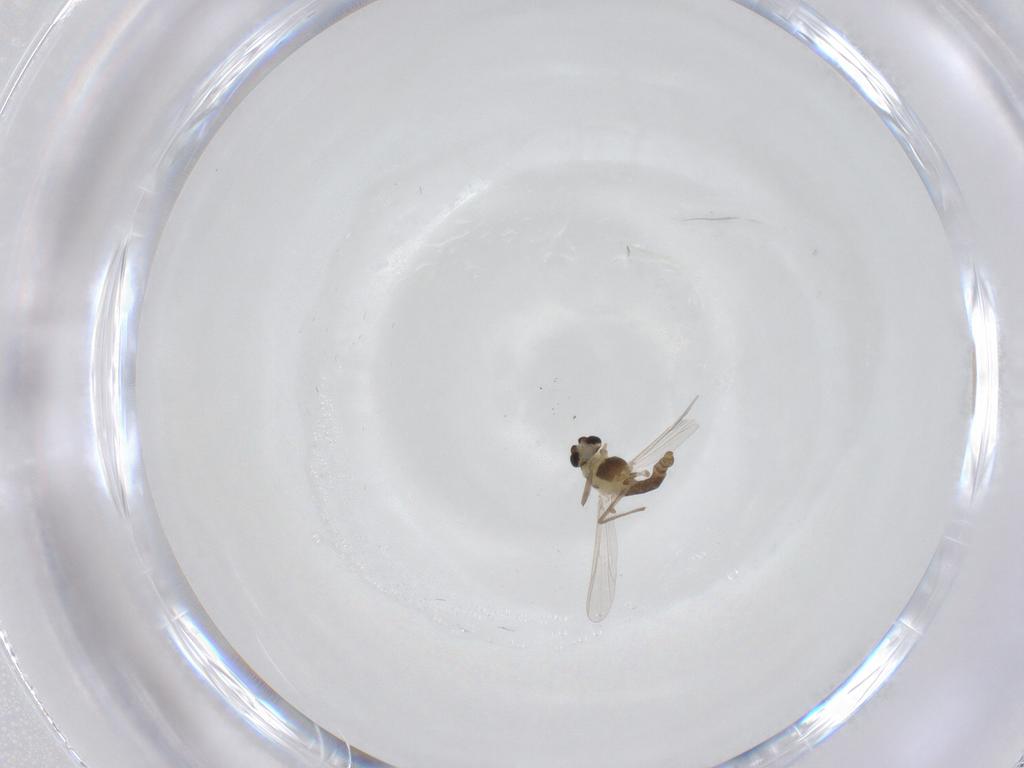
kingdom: Animalia
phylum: Arthropoda
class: Insecta
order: Diptera
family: Chironomidae
